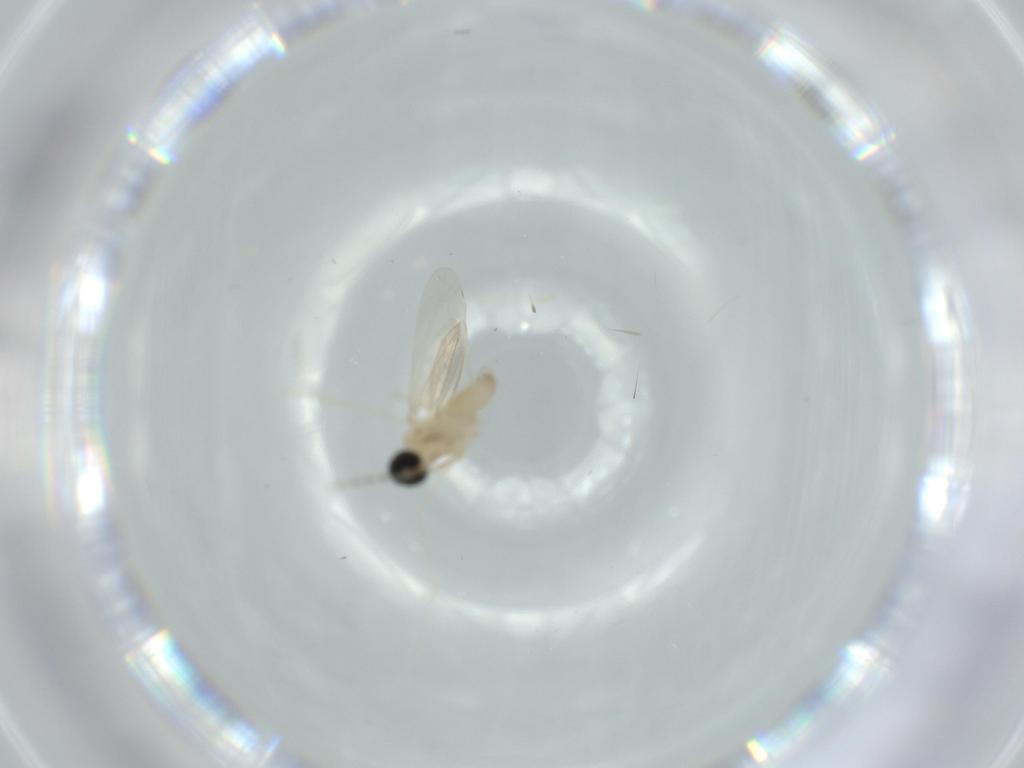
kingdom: Animalia
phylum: Arthropoda
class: Insecta
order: Diptera
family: Cecidomyiidae
